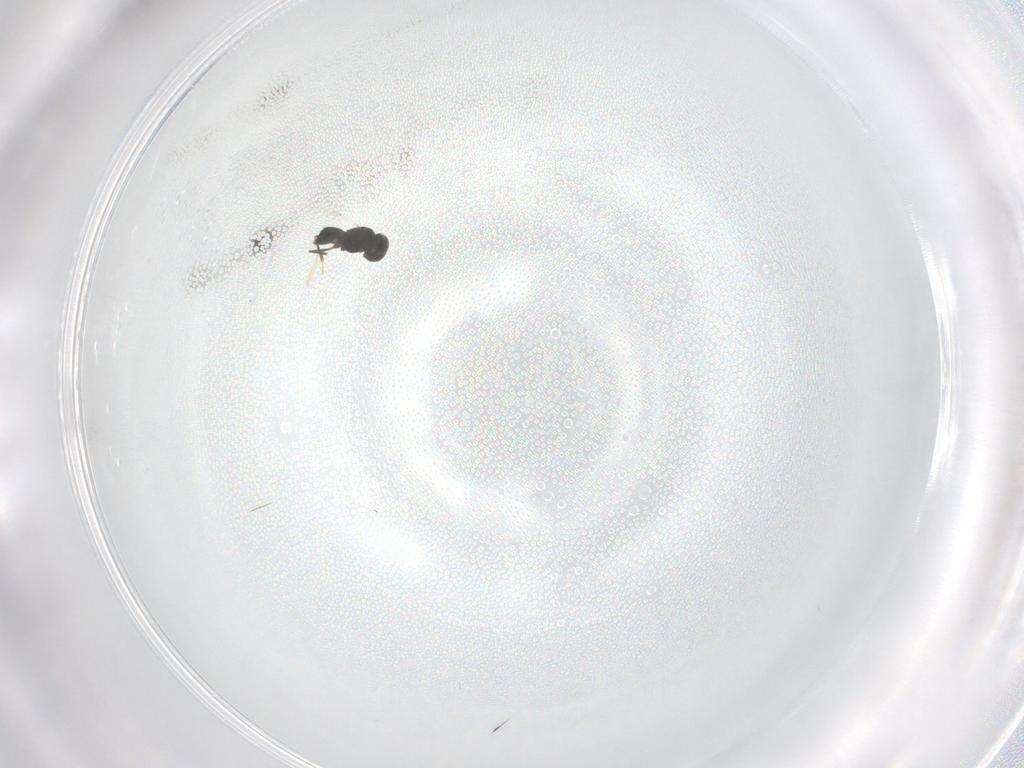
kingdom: Animalia
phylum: Arthropoda
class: Insecta
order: Hymenoptera
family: Scelionidae
